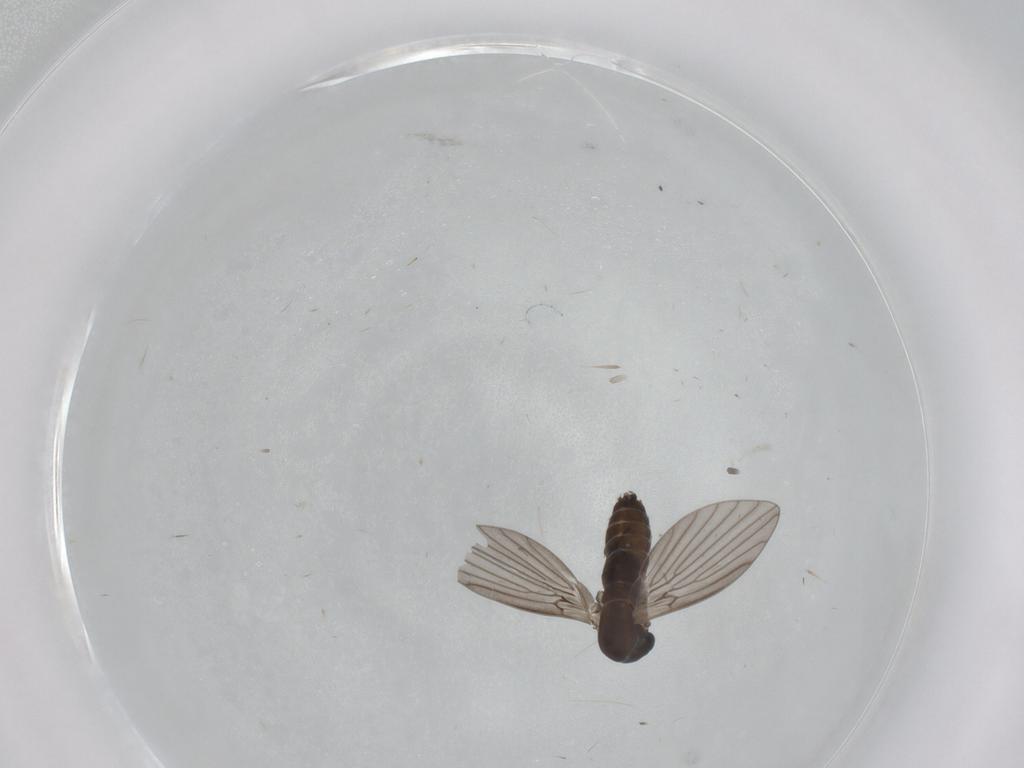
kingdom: Animalia
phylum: Arthropoda
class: Insecta
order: Diptera
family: Cecidomyiidae
